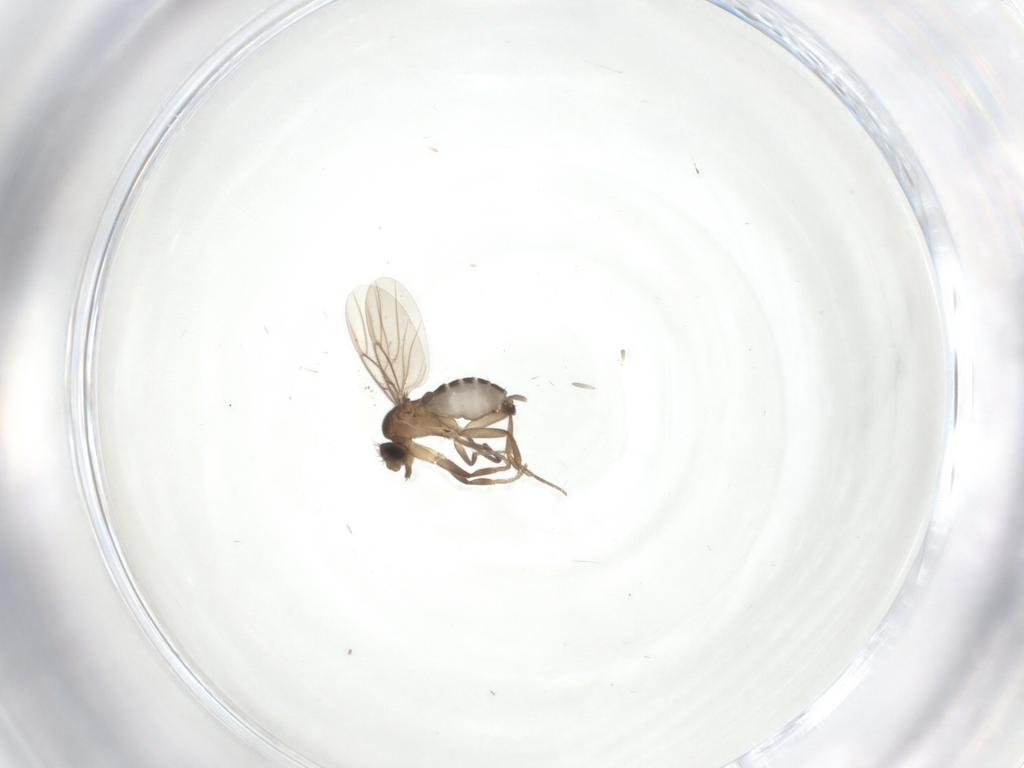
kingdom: Animalia
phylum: Arthropoda
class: Insecta
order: Diptera
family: Phoridae
